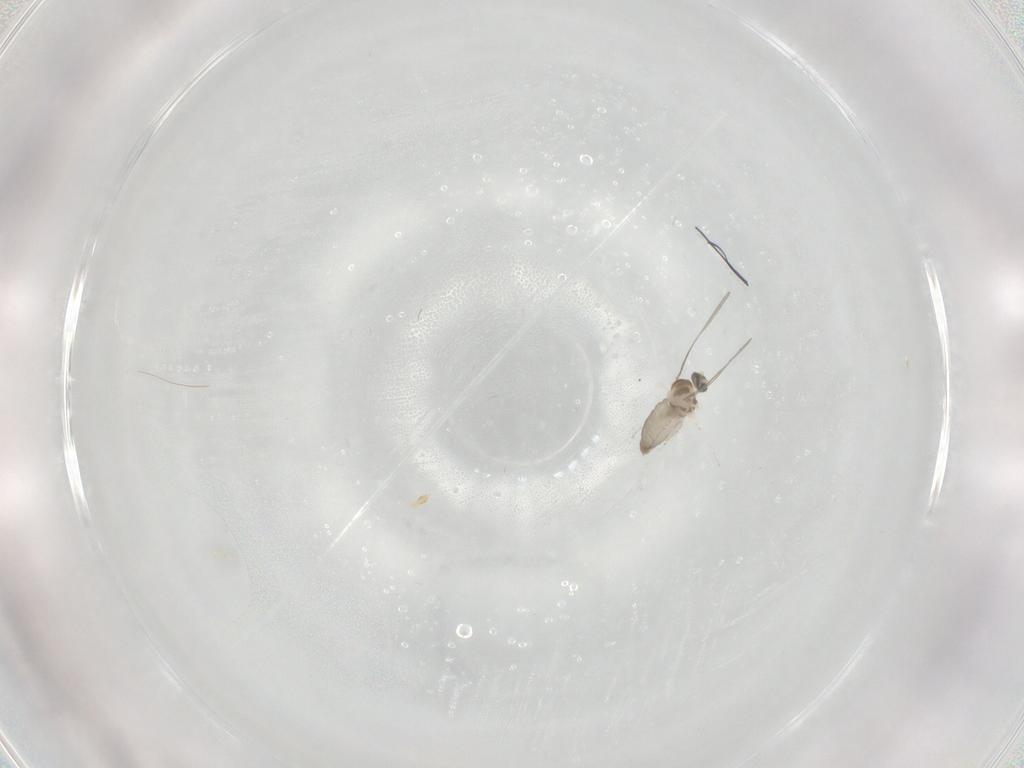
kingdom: Animalia
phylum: Arthropoda
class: Insecta
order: Diptera
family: Cecidomyiidae
